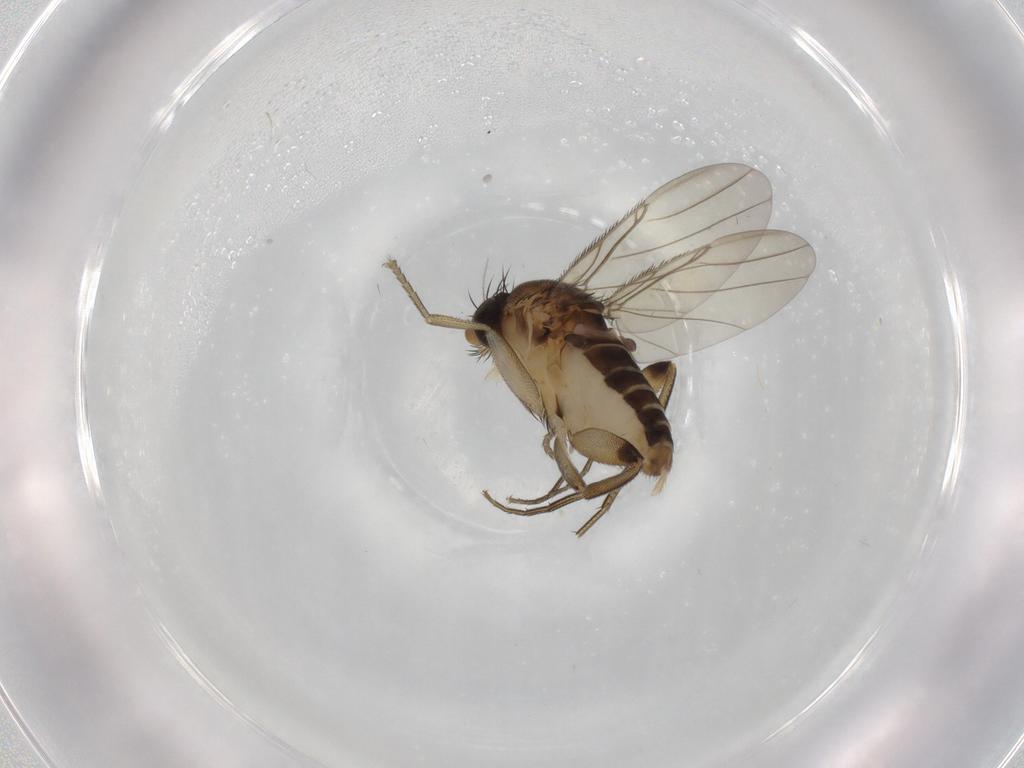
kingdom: Animalia
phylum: Arthropoda
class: Insecta
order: Diptera
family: Phoridae
